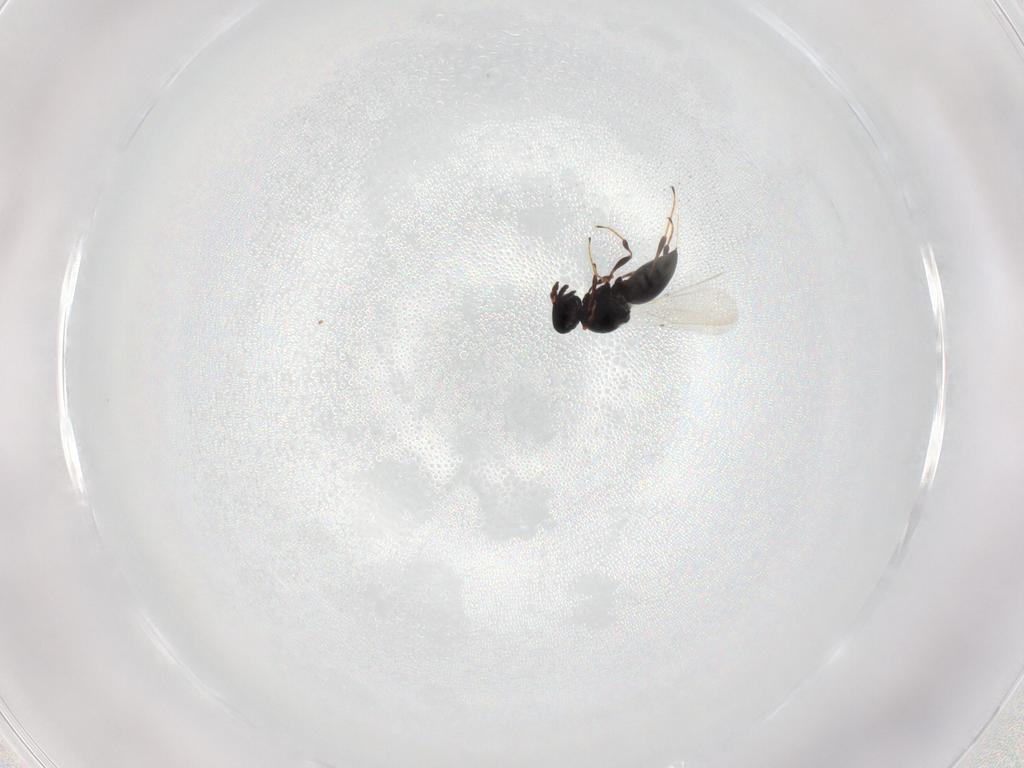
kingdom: Animalia
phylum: Arthropoda
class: Insecta
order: Hymenoptera
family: Platygastridae
